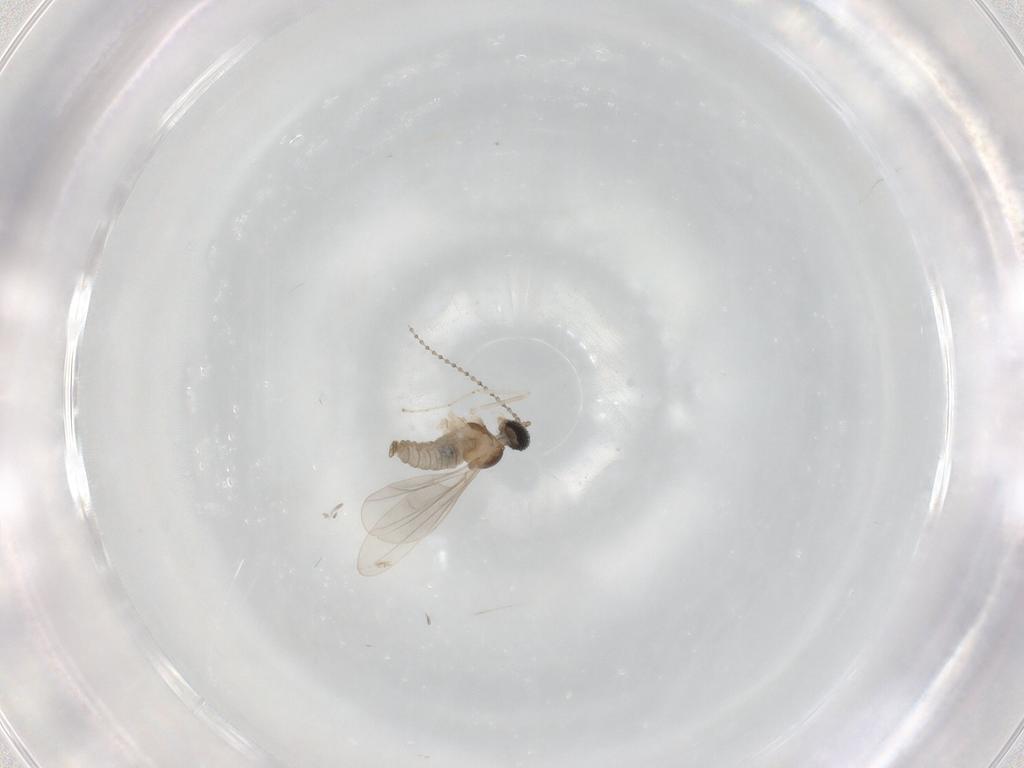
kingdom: Animalia
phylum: Arthropoda
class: Insecta
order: Diptera
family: Cecidomyiidae
